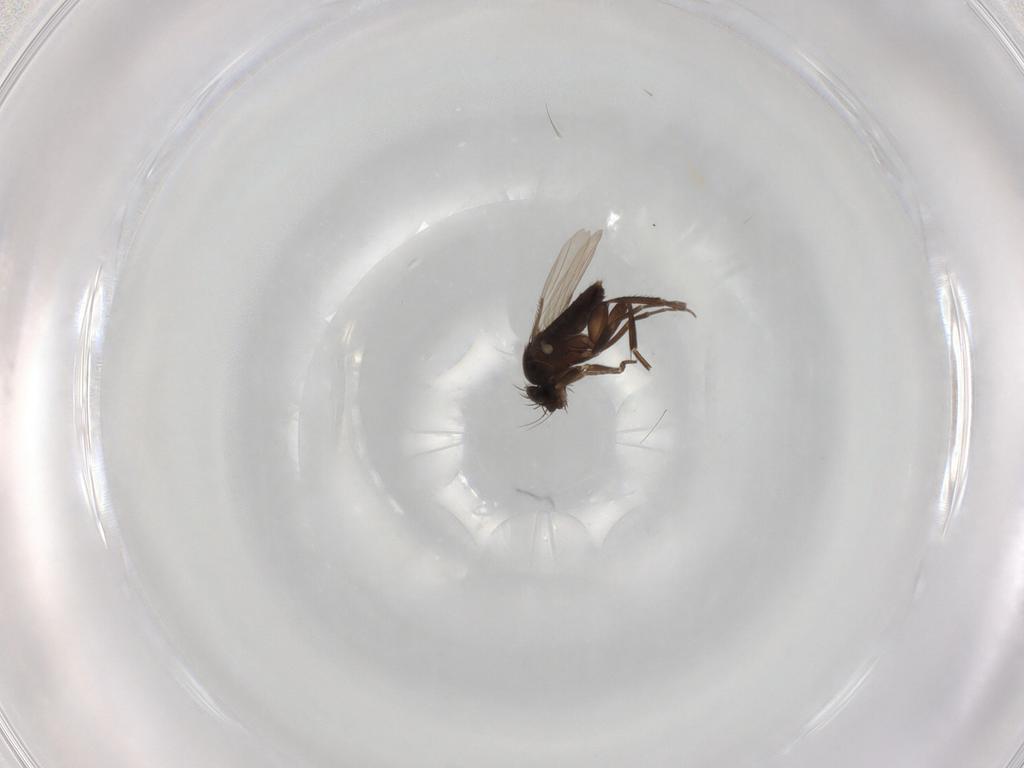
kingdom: Animalia
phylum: Arthropoda
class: Insecta
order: Diptera
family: Phoridae
